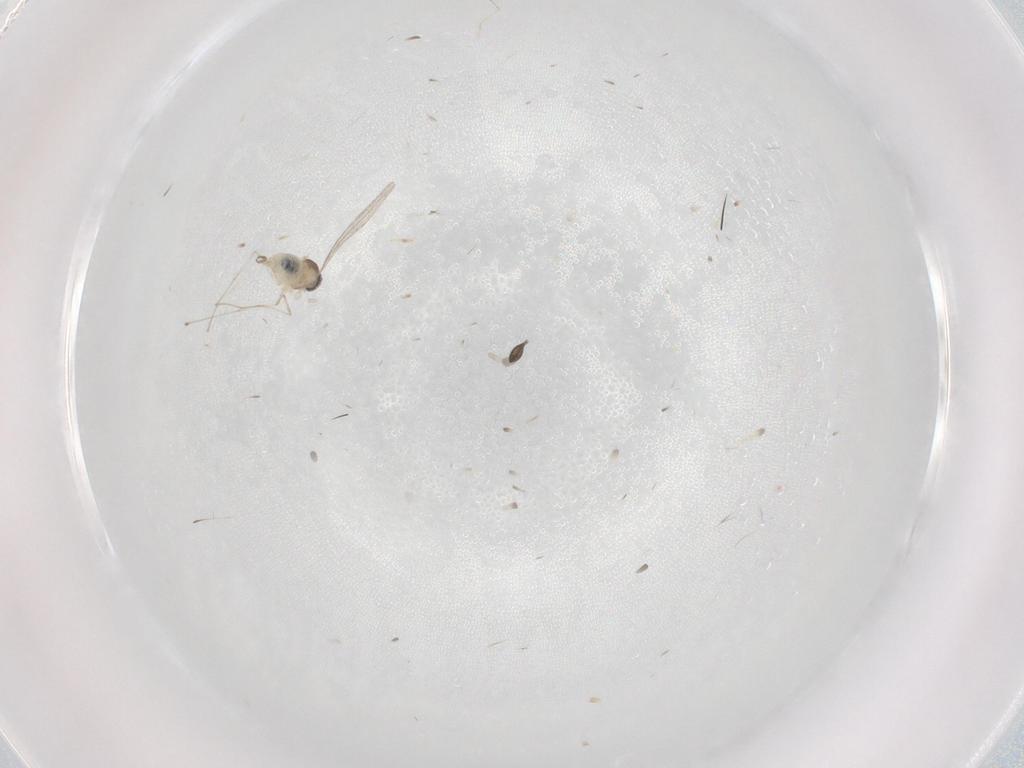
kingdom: Animalia
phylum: Arthropoda
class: Insecta
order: Diptera
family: Cecidomyiidae
